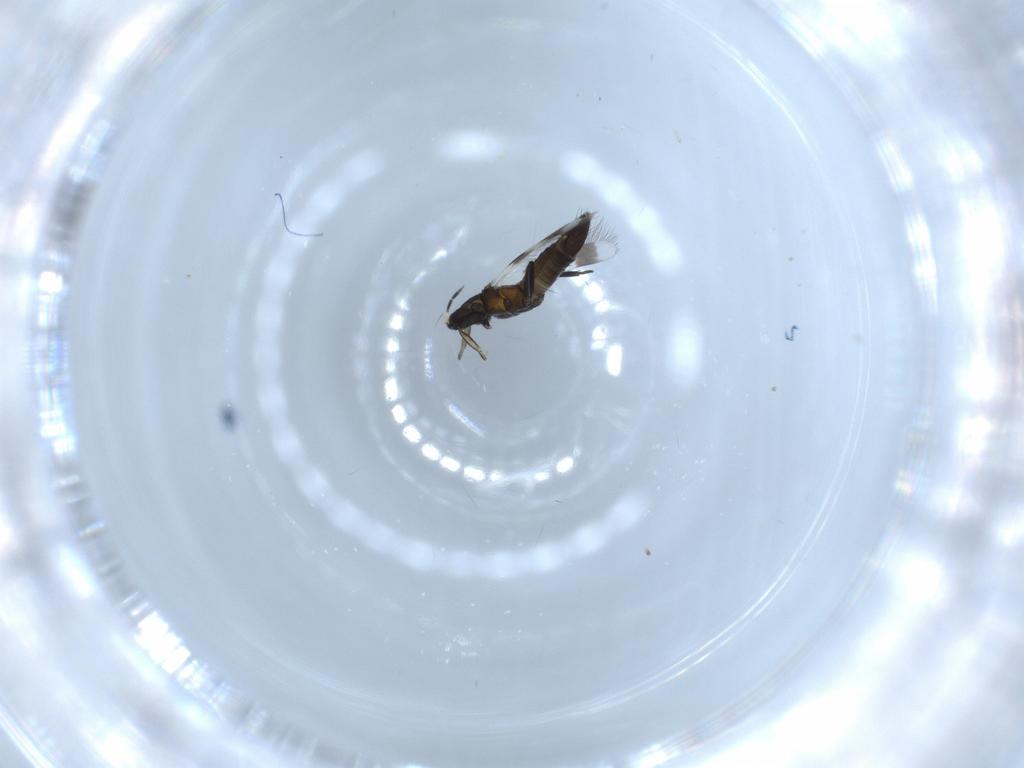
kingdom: Animalia
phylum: Arthropoda
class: Insecta
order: Thysanoptera
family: Aeolothripidae
